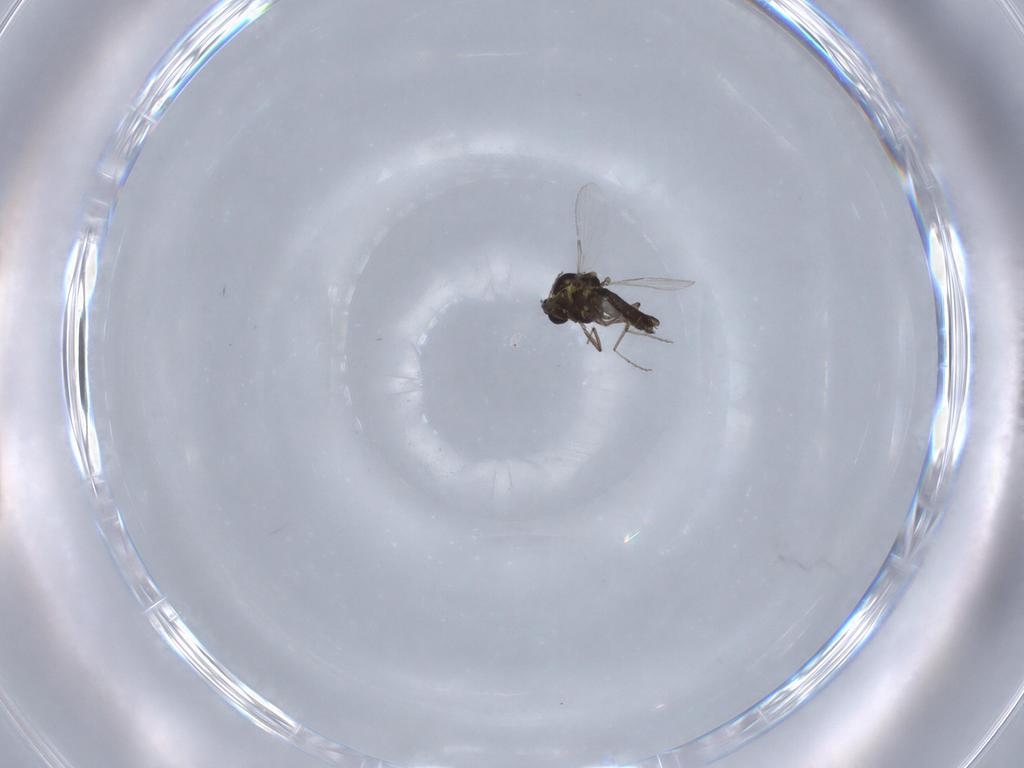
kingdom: Animalia
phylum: Arthropoda
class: Insecta
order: Diptera
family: Ceratopogonidae
